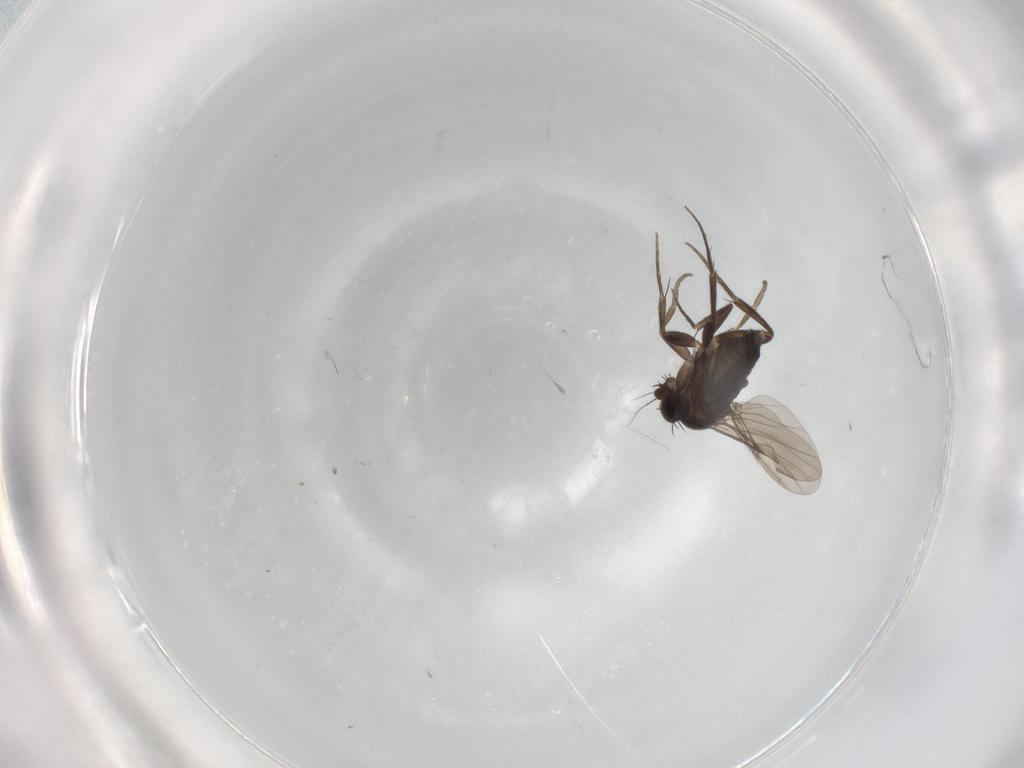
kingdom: Animalia
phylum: Arthropoda
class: Insecta
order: Diptera
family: Phoridae
